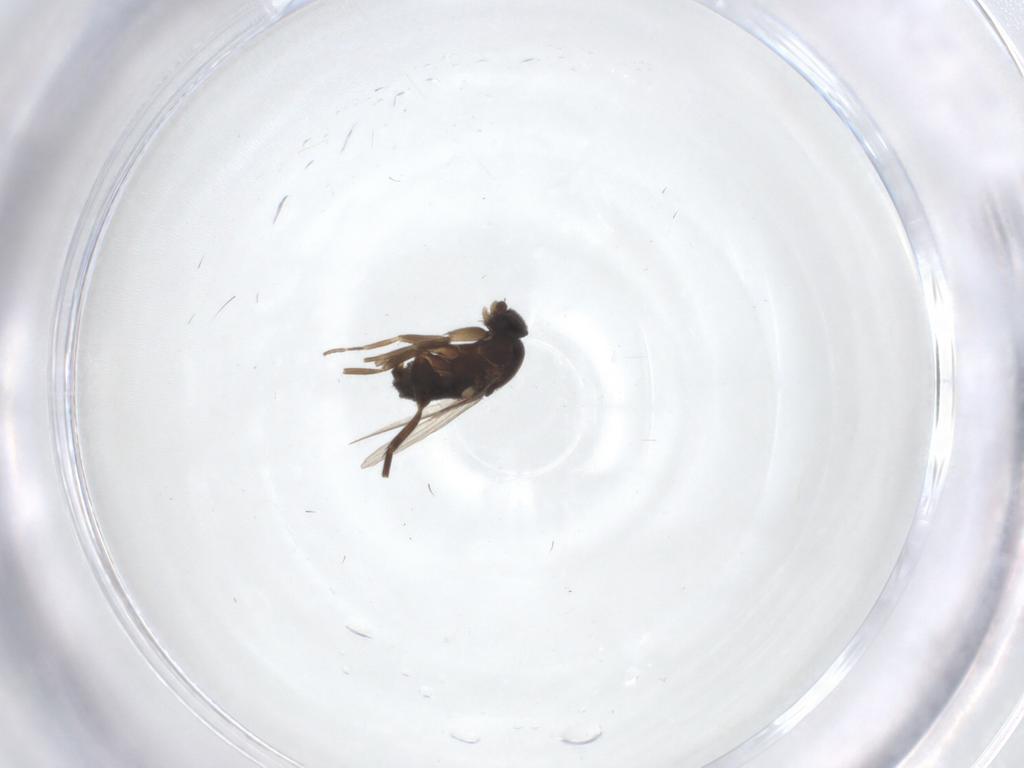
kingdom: Animalia
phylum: Arthropoda
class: Insecta
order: Diptera
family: Phoridae
